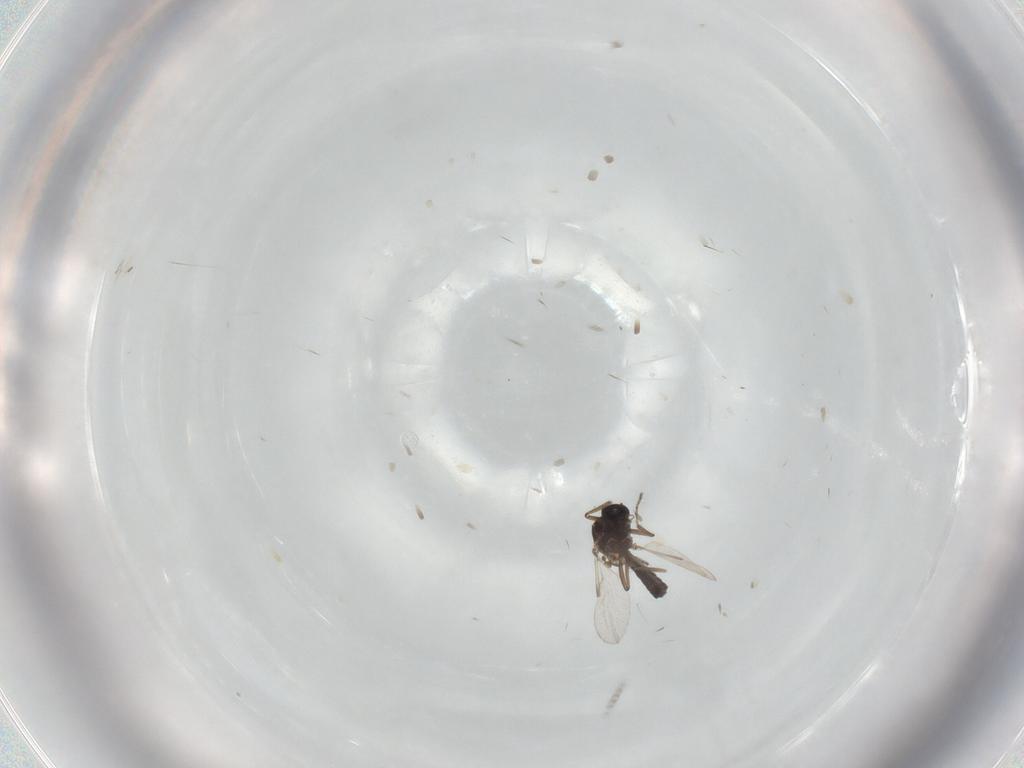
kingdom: Animalia
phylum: Arthropoda
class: Insecta
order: Diptera
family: Ceratopogonidae
